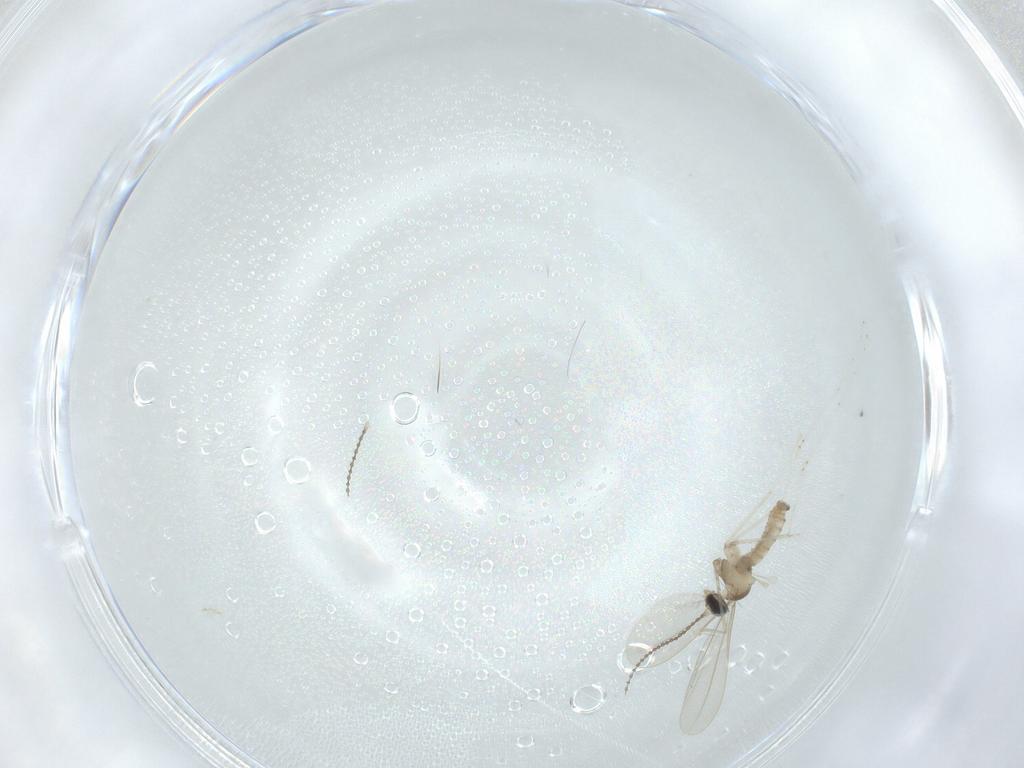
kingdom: Animalia
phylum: Arthropoda
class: Insecta
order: Diptera
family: Cecidomyiidae
